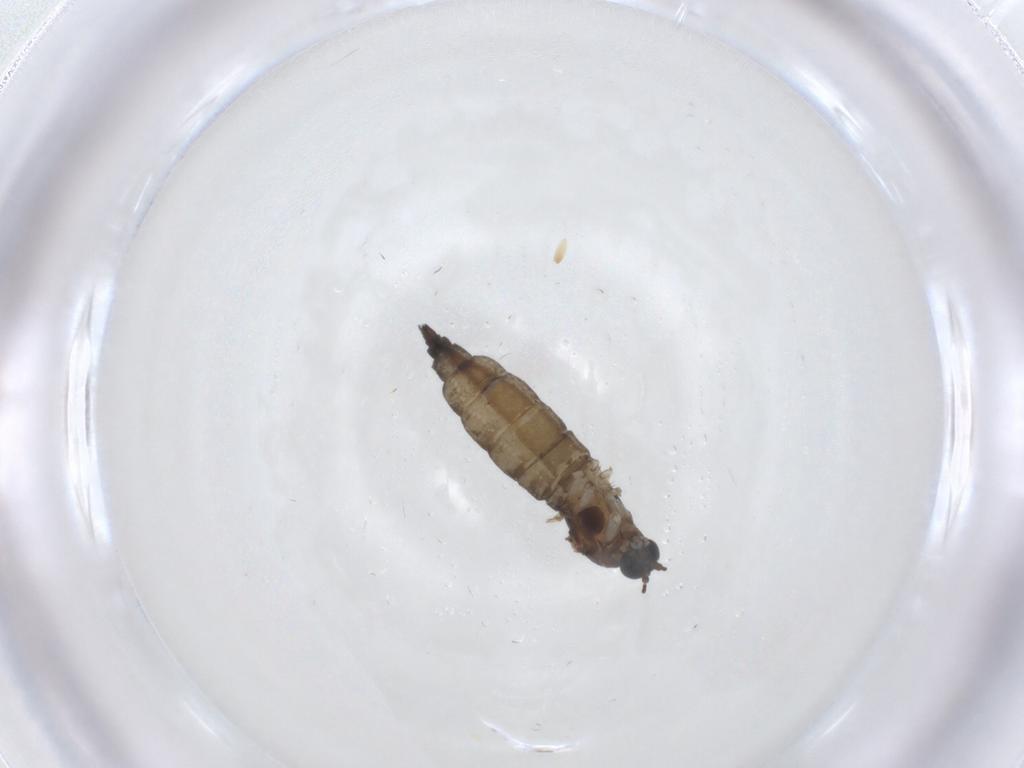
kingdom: Animalia
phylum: Arthropoda
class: Insecta
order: Diptera
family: Sciaridae
